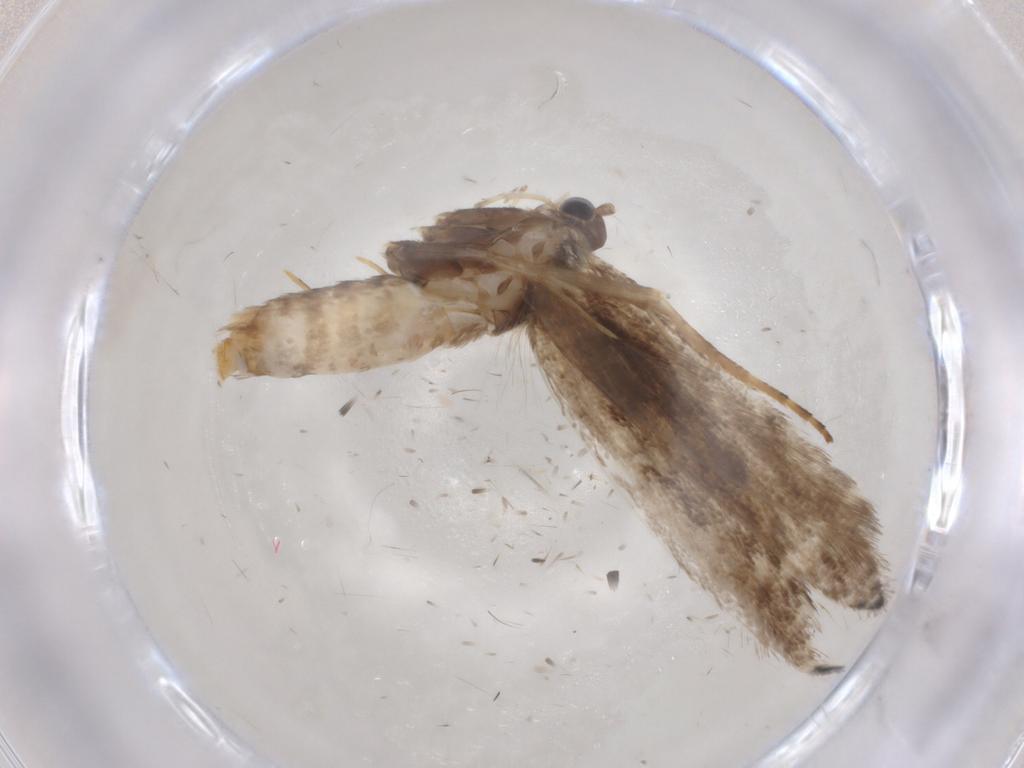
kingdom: Animalia
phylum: Arthropoda
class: Insecta
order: Lepidoptera
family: Gracillariidae
